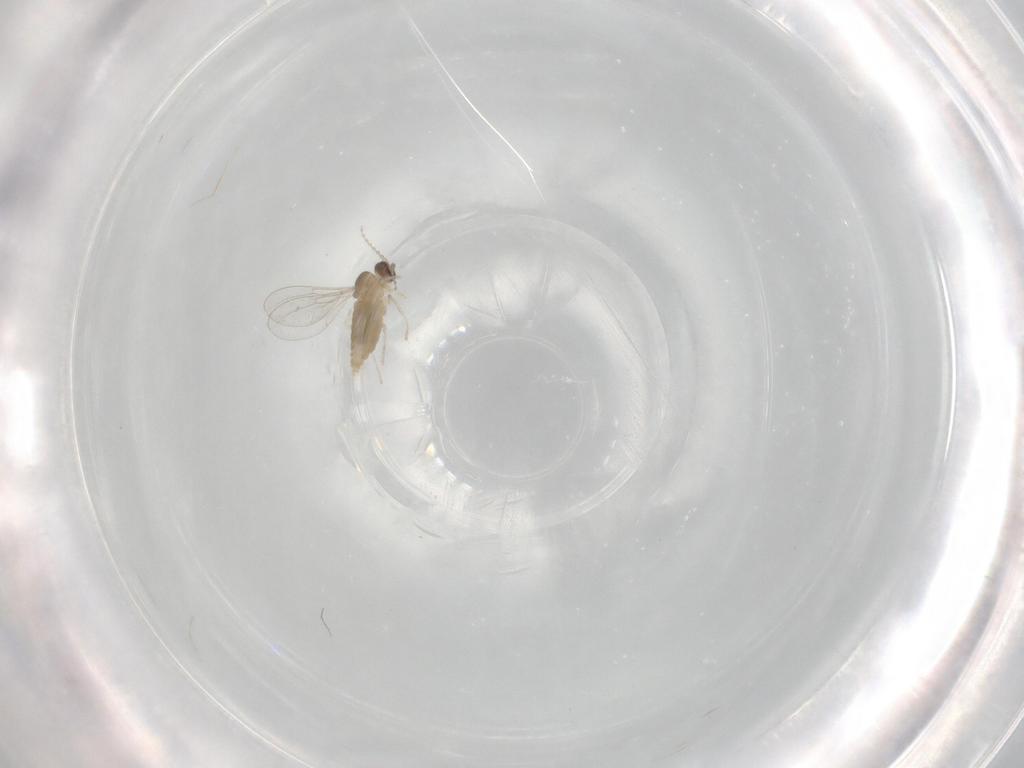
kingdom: Animalia
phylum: Arthropoda
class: Insecta
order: Diptera
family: Cecidomyiidae
